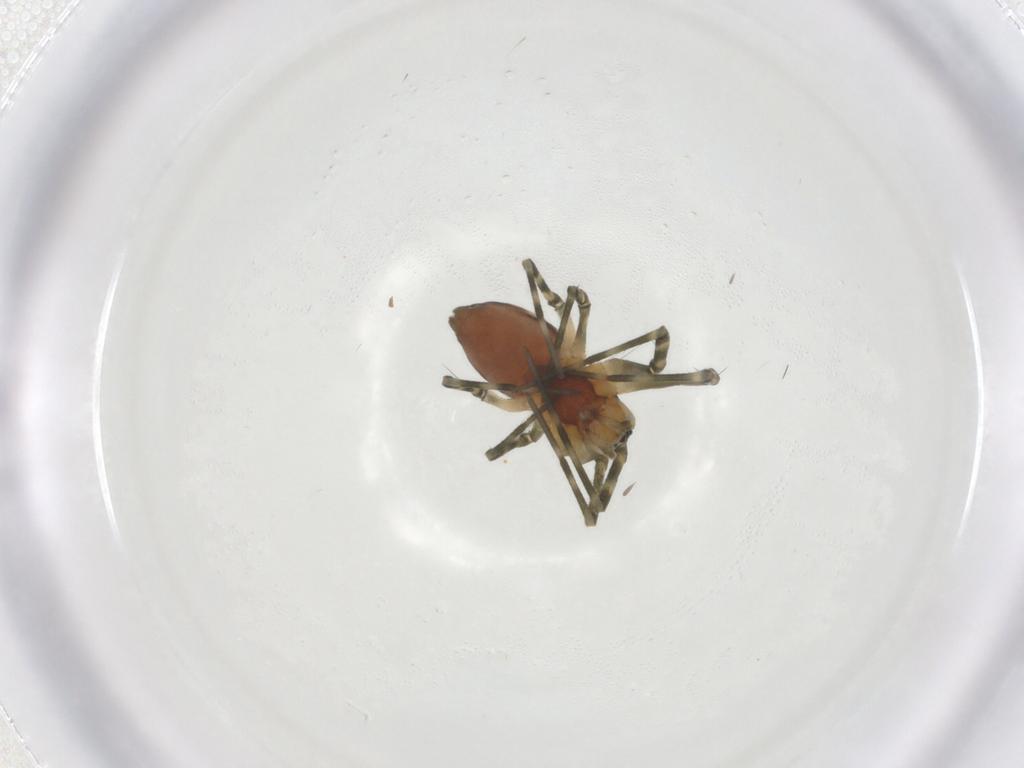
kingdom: Animalia
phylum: Arthropoda
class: Arachnida
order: Araneae
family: Linyphiidae
